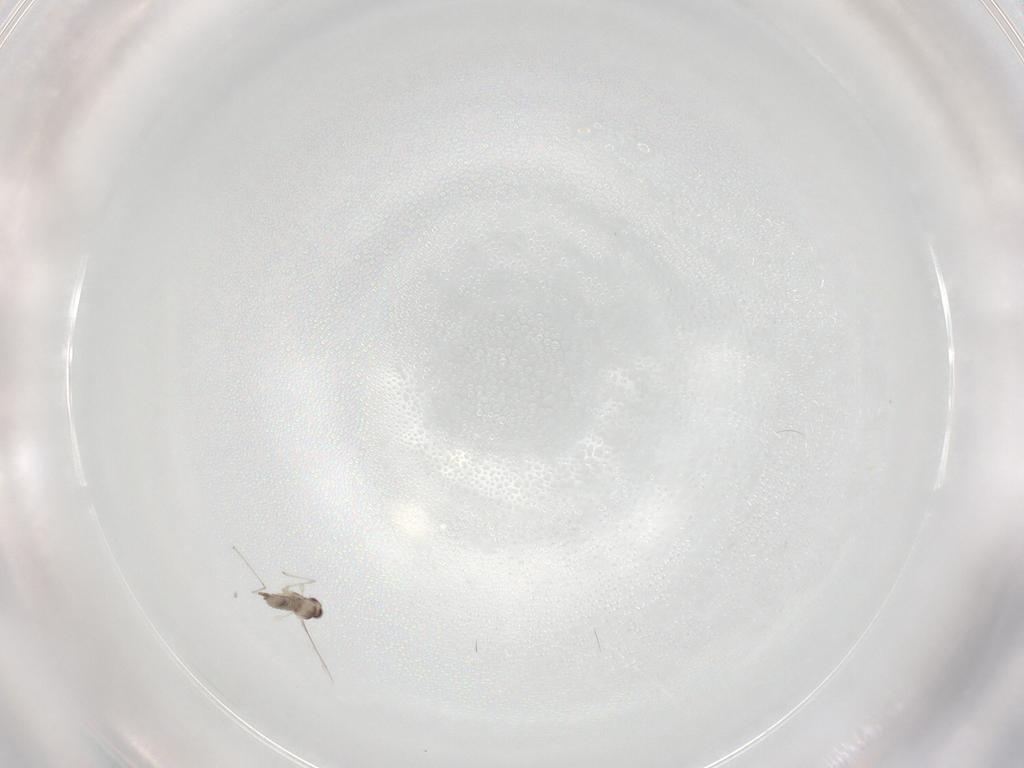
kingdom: Animalia
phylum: Arthropoda
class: Insecta
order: Diptera
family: Cecidomyiidae
